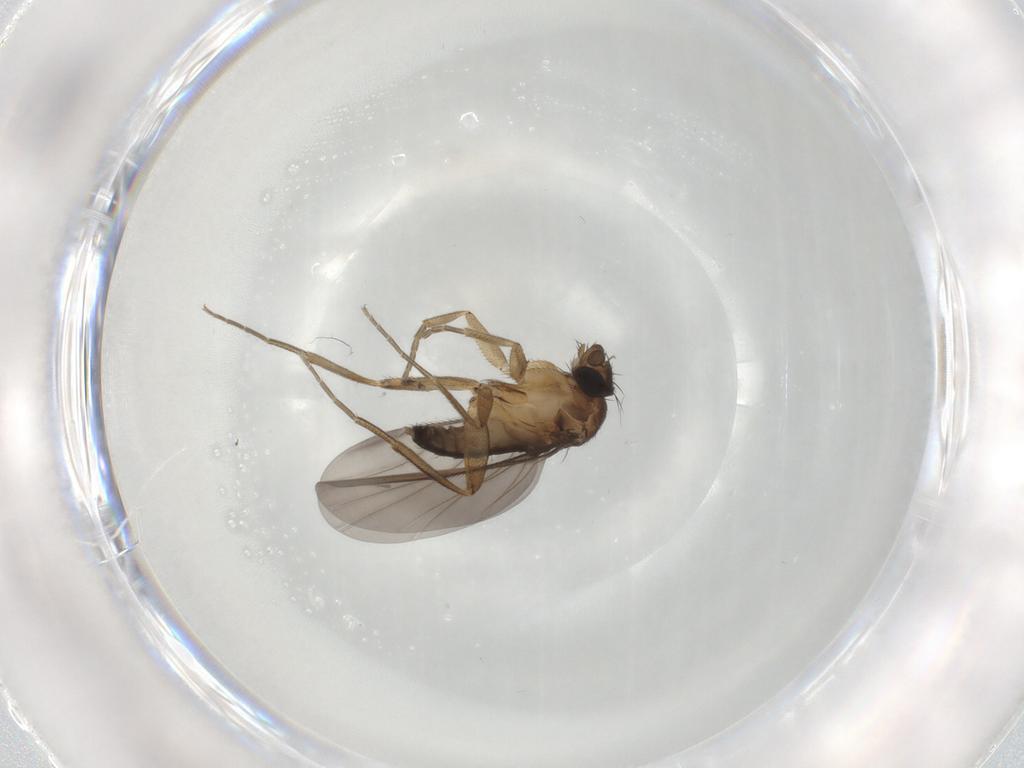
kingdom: Animalia
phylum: Arthropoda
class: Insecta
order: Diptera
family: Phoridae
